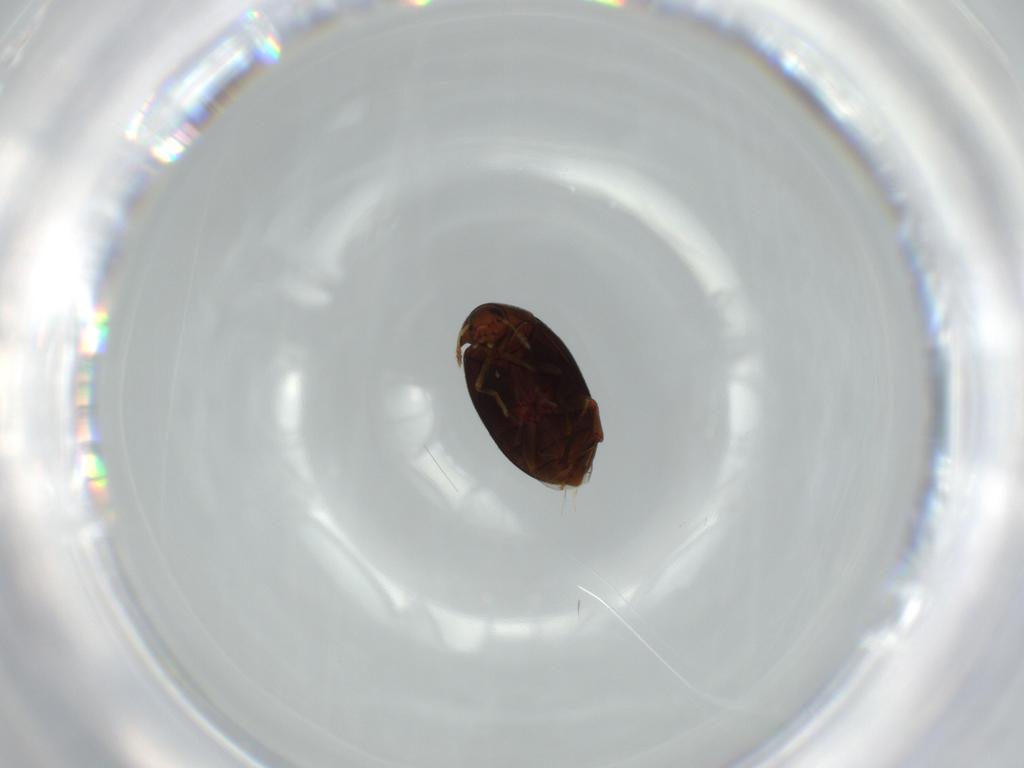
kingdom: Animalia
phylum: Arthropoda
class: Insecta
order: Coleoptera
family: Melandryidae
